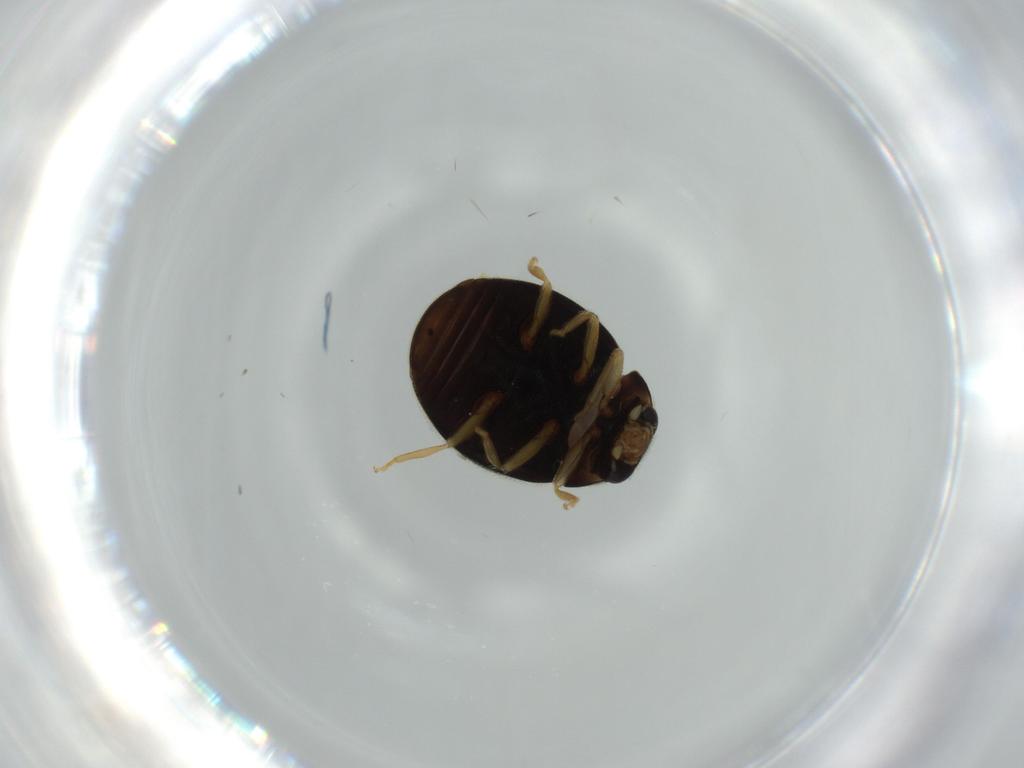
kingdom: Animalia
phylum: Arthropoda
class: Insecta
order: Coleoptera
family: Coccinellidae
